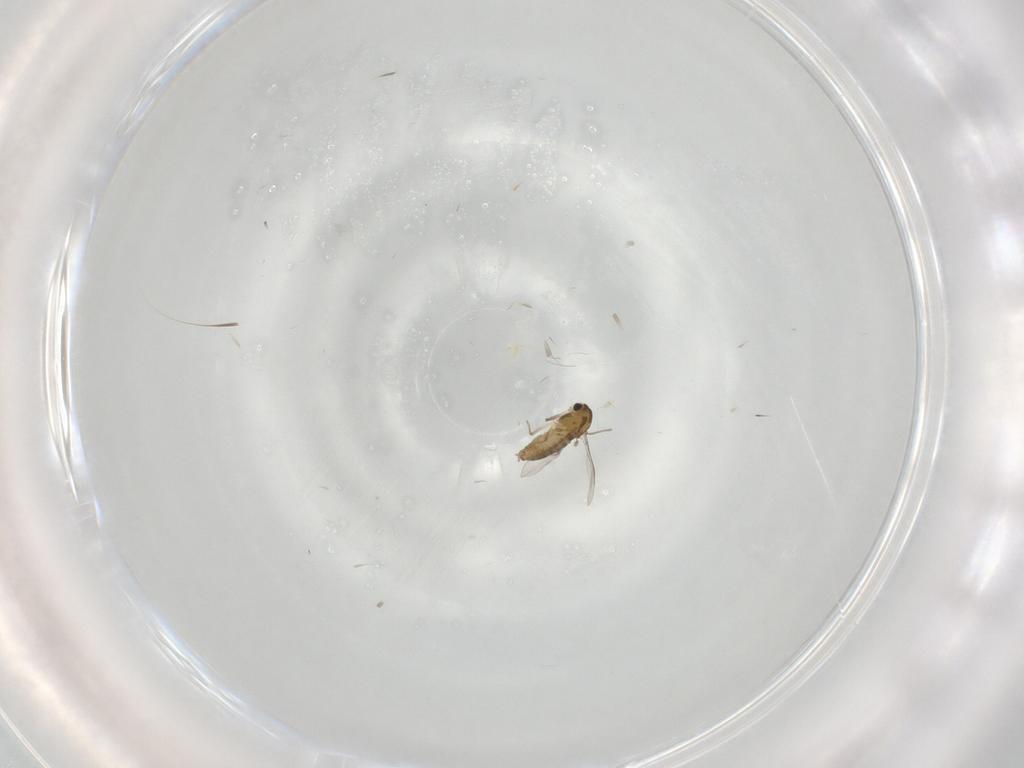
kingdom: Animalia
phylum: Arthropoda
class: Insecta
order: Diptera
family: Chironomidae
